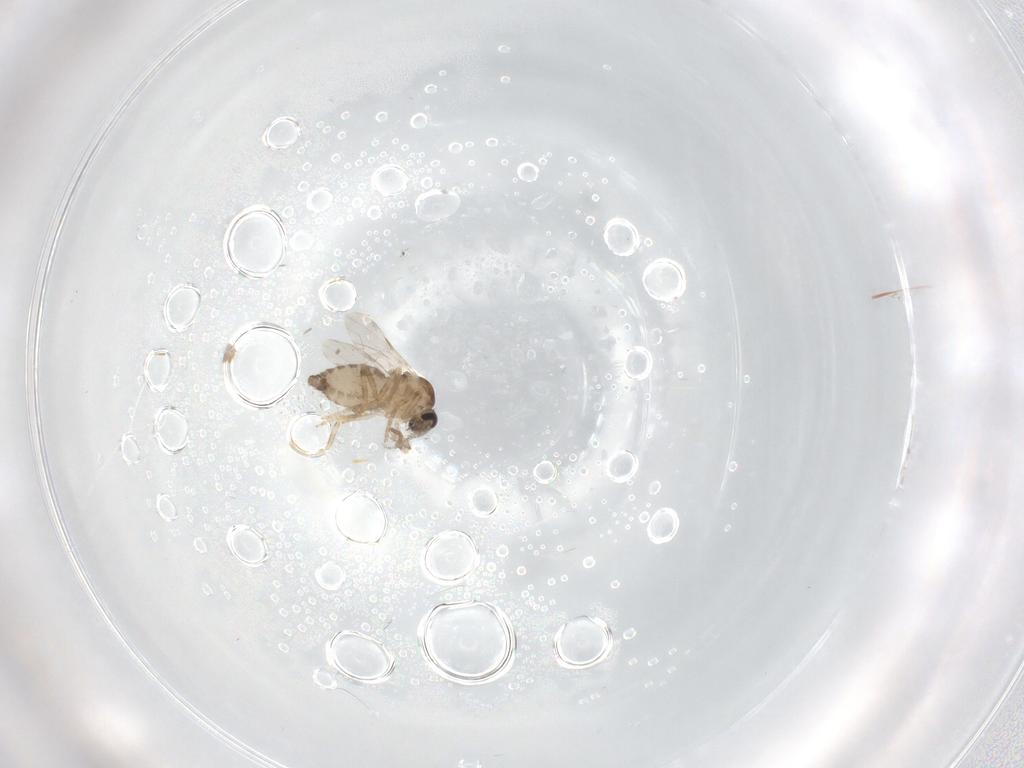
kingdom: Animalia
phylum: Arthropoda
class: Insecta
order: Diptera
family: Ceratopogonidae
